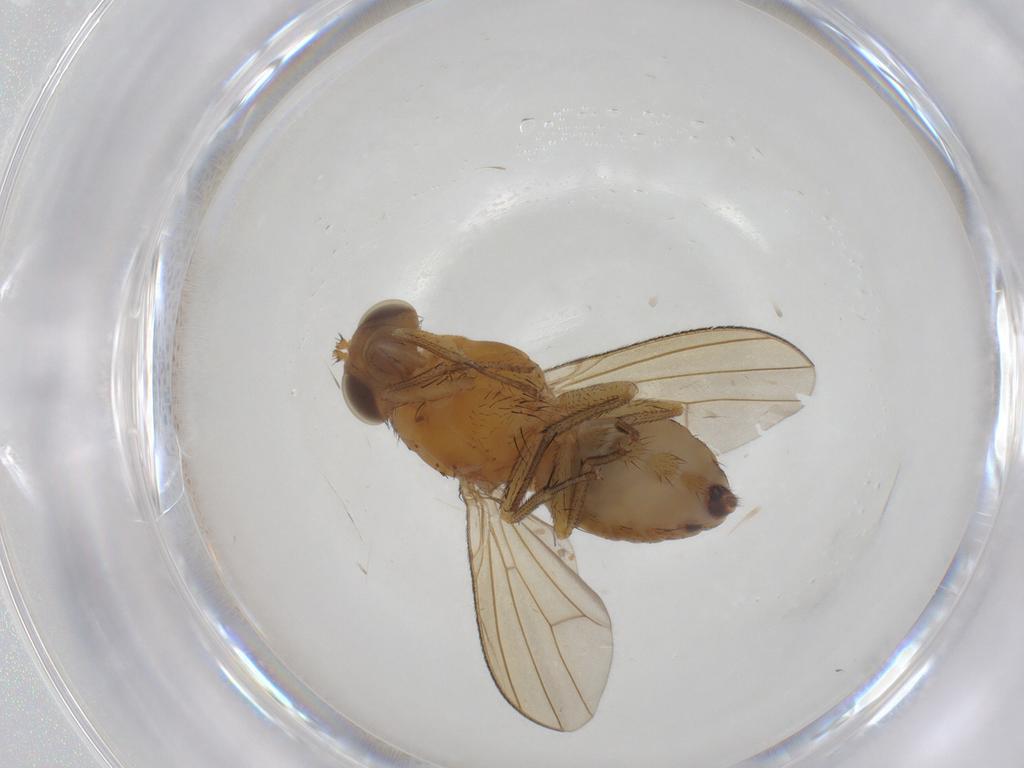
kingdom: Animalia
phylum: Arthropoda
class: Insecta
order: Diptera
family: Lauxaniidae
